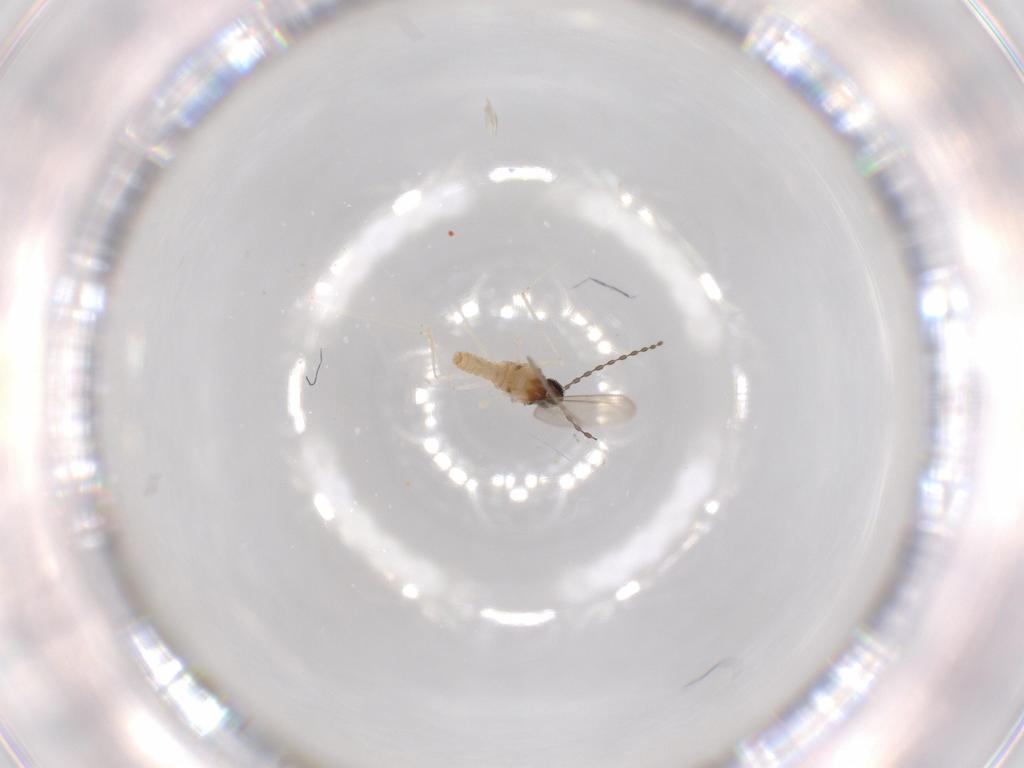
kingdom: Animalia
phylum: Arthropoda
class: Insecta
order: Diptera
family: Cecidomyiidae
